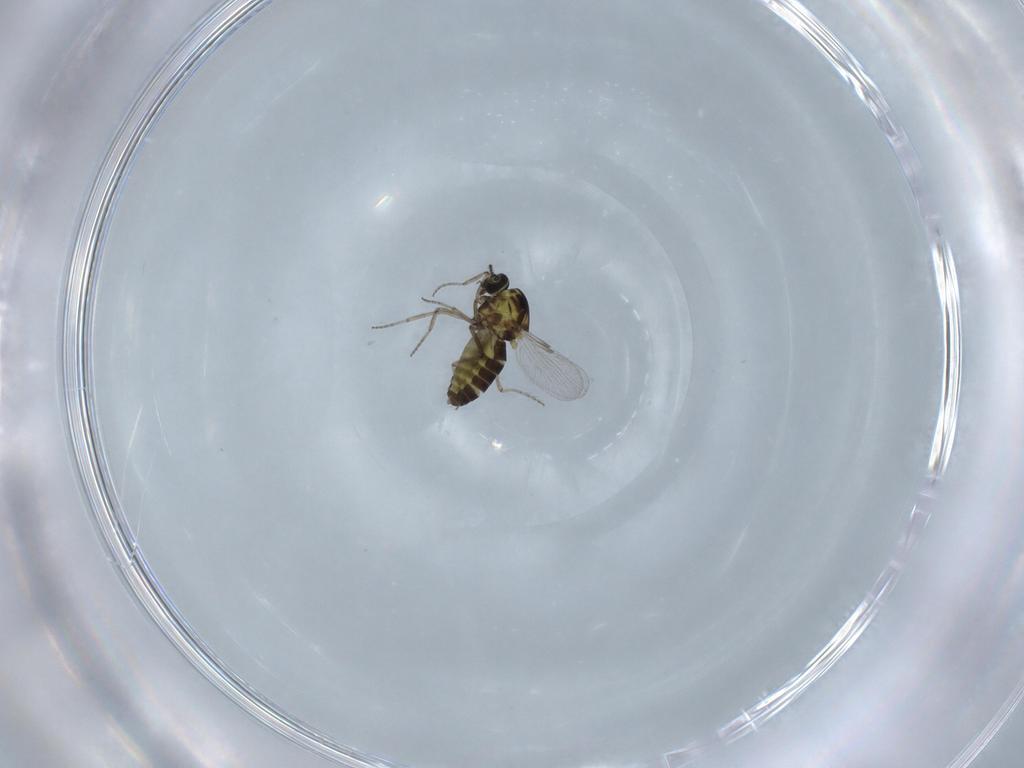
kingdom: Animalia
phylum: Arthropoda
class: Insecta
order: Diptera
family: Ceratopogonidae
